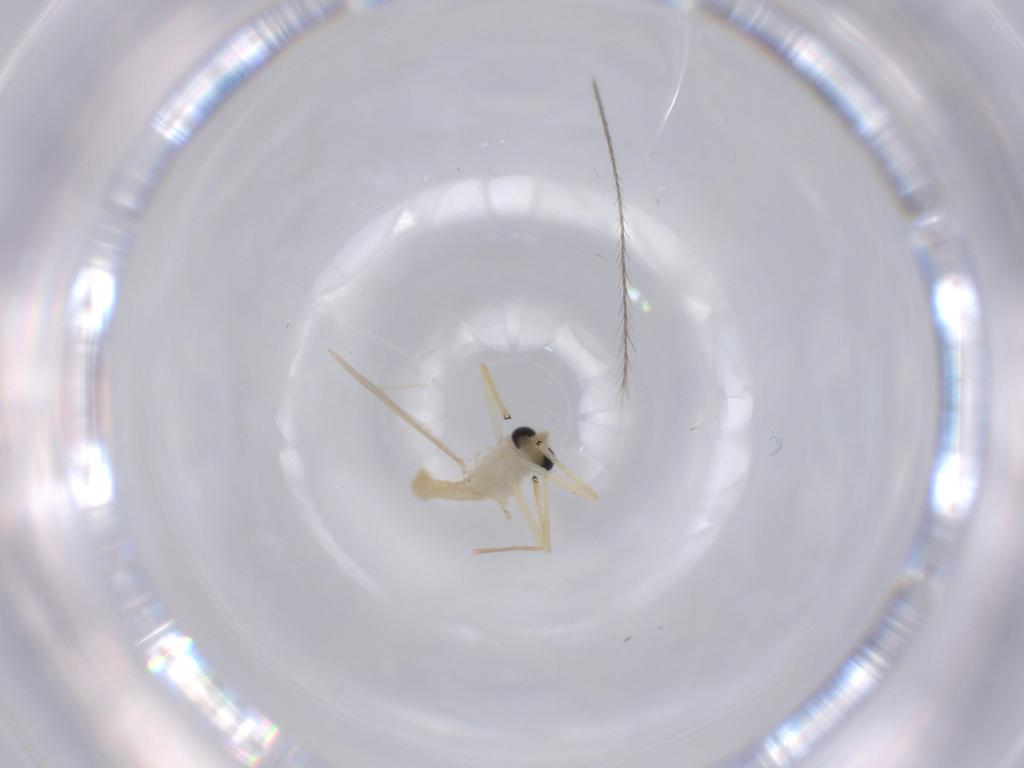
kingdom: Animalia
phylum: Arthropoda
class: Insecta
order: Diptera
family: Chironomidae
